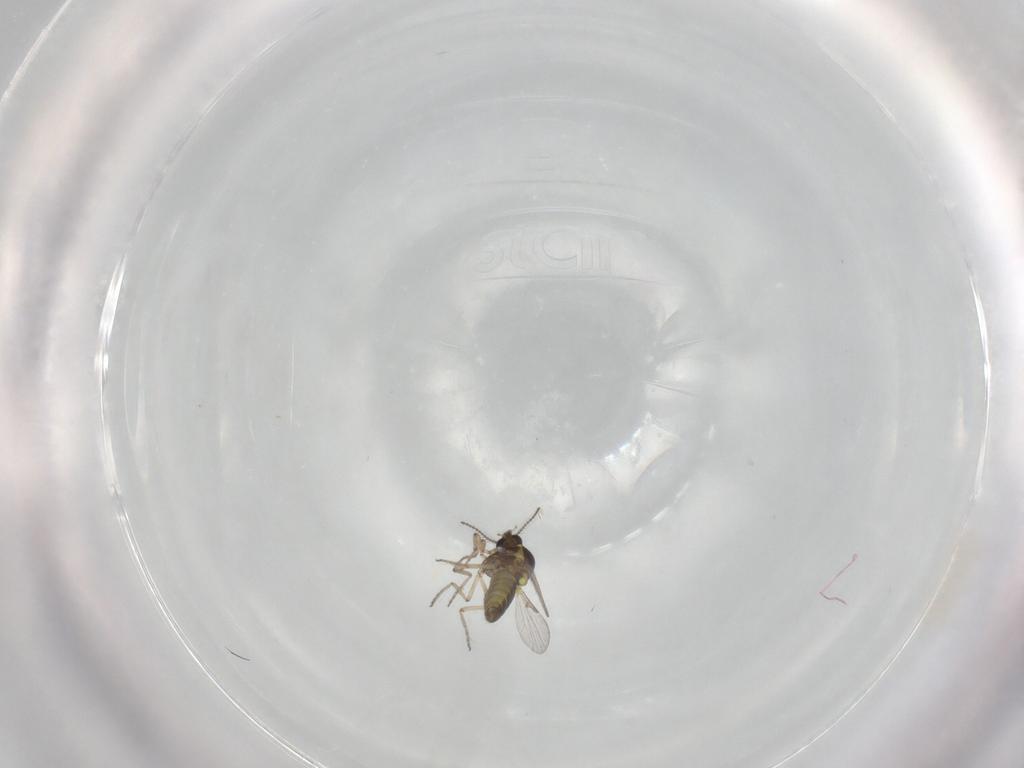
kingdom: Animalia
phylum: Arthropoda
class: Insecta
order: Diptera
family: Ceratopogonidae
